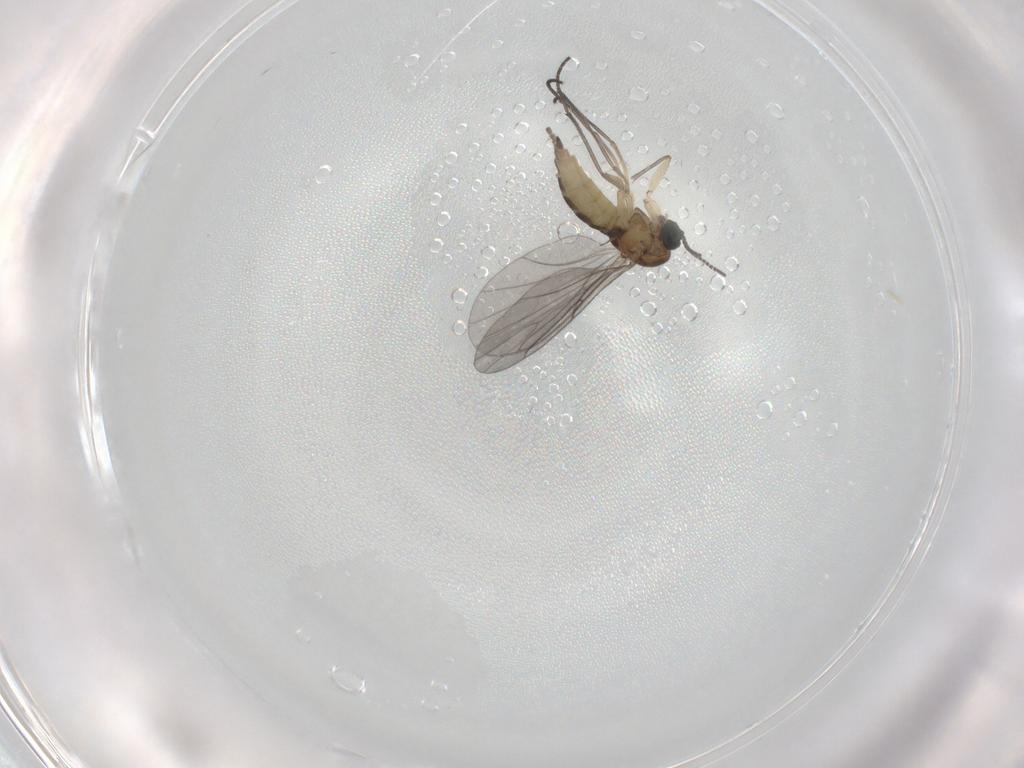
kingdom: Animalia
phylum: Arthropoda
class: Insecta
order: Diptera
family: Sciaridae
